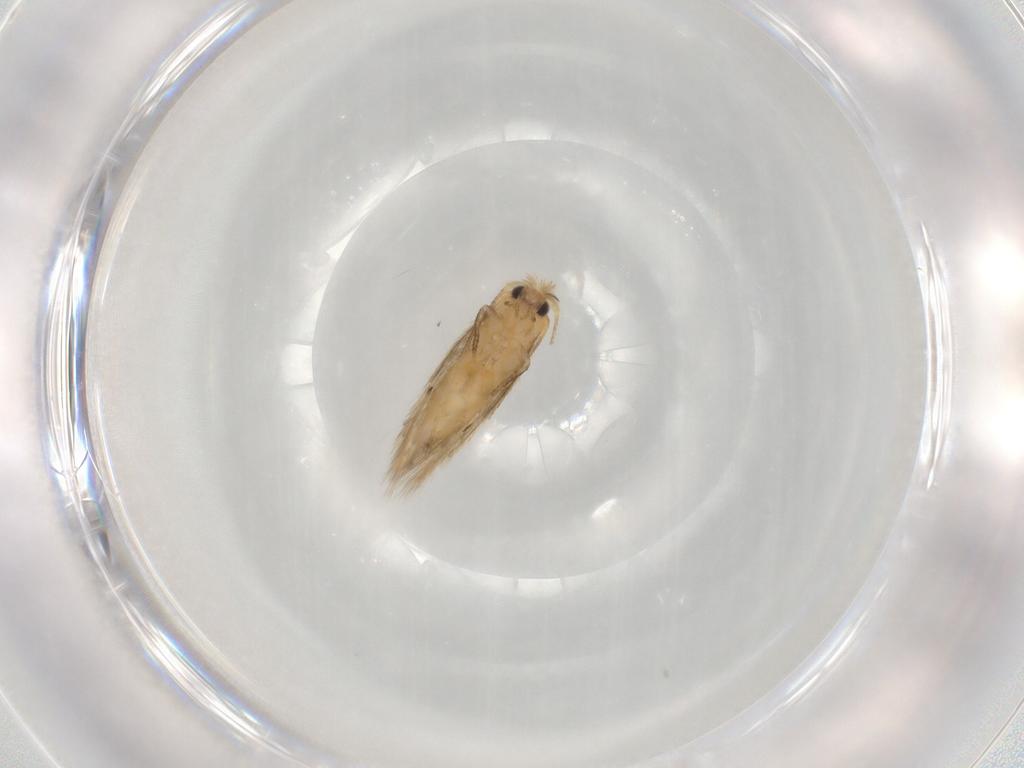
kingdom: Animalia
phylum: Arthropoda
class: Insecta
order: Lepidoptera
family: Nepticulidae
